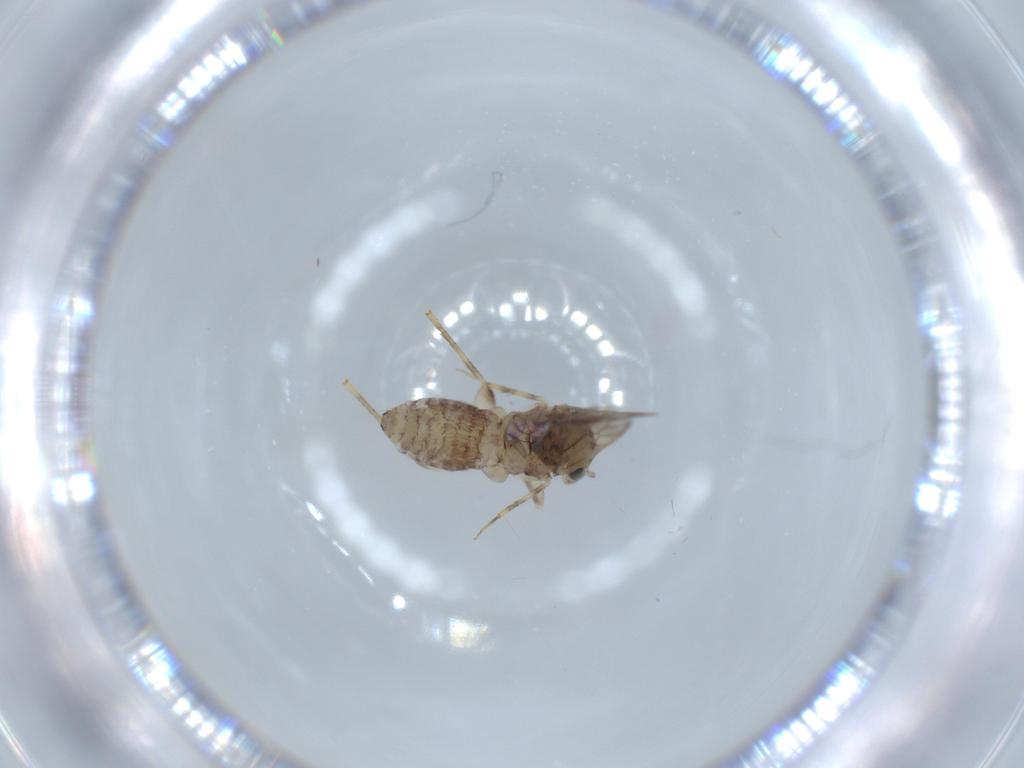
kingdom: Animalia
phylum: Arthropoda
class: Insecta
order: Psocodea
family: Lepidopsocidae
